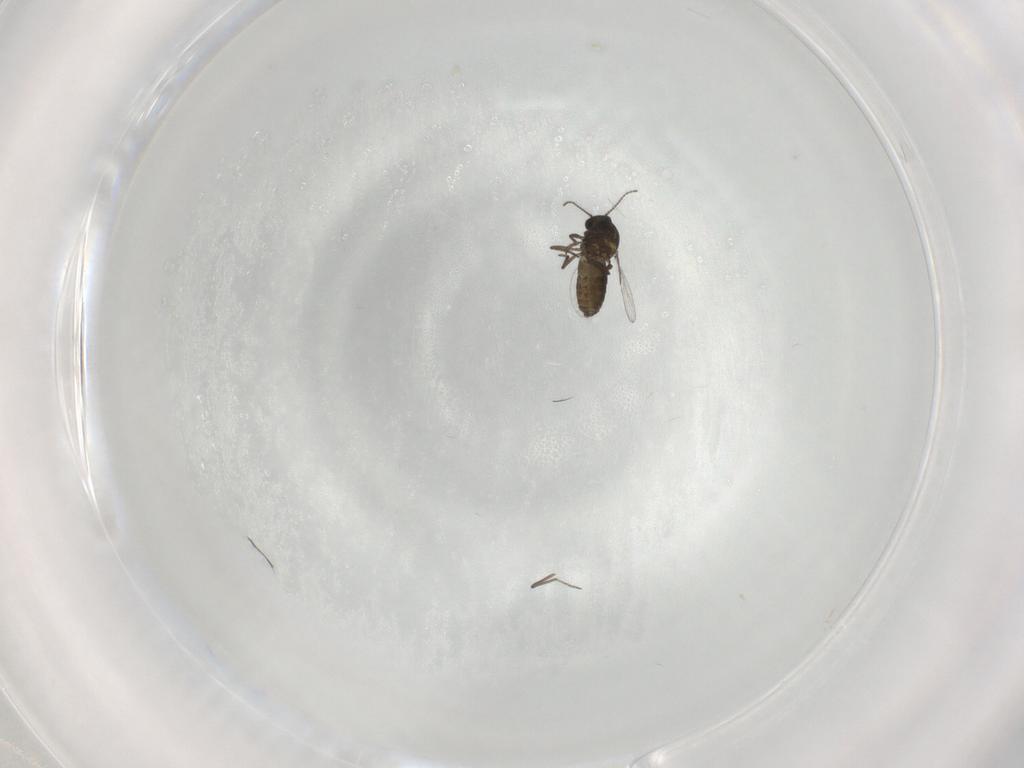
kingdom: Animalia
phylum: Arthropoda
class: Insecta
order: Diptera
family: Ceratopogonidae
